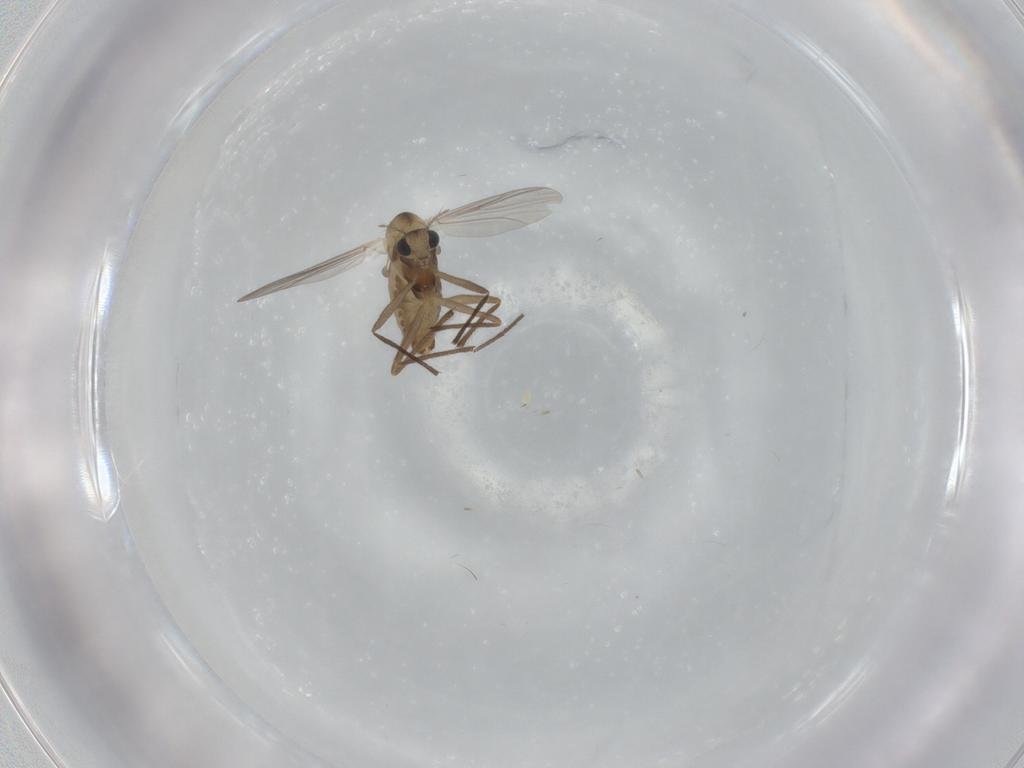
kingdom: Animalia
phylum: Arthropoda
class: Insecta
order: Diptera
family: Chironomidae
